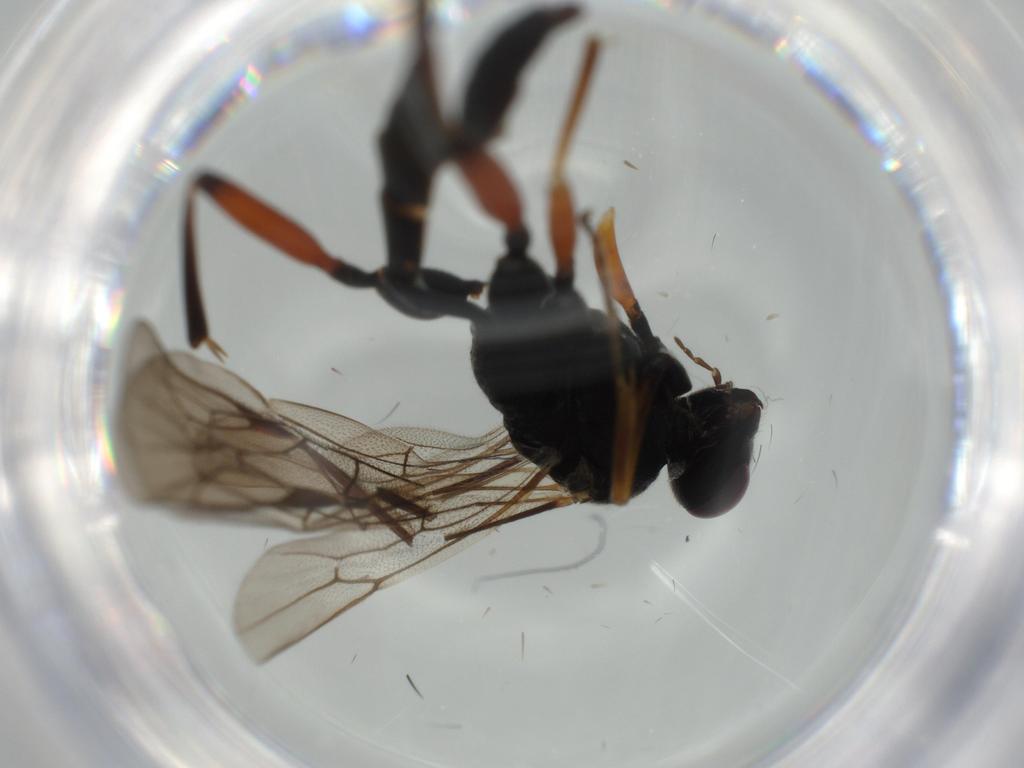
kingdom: Animalia
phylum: Arthropoda
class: Insecta
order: Hymenoptera
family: Ichneumonidae
